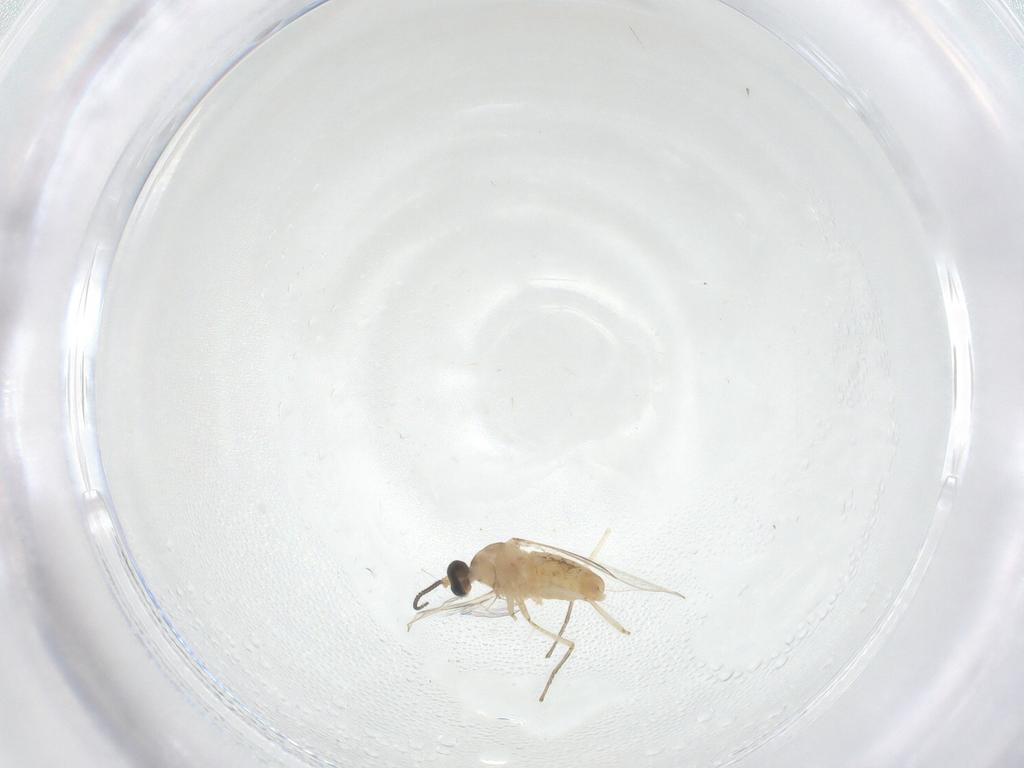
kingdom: Animalia
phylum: Arthropoda
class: Insecta
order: Diptera
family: Cecidomyiidae
